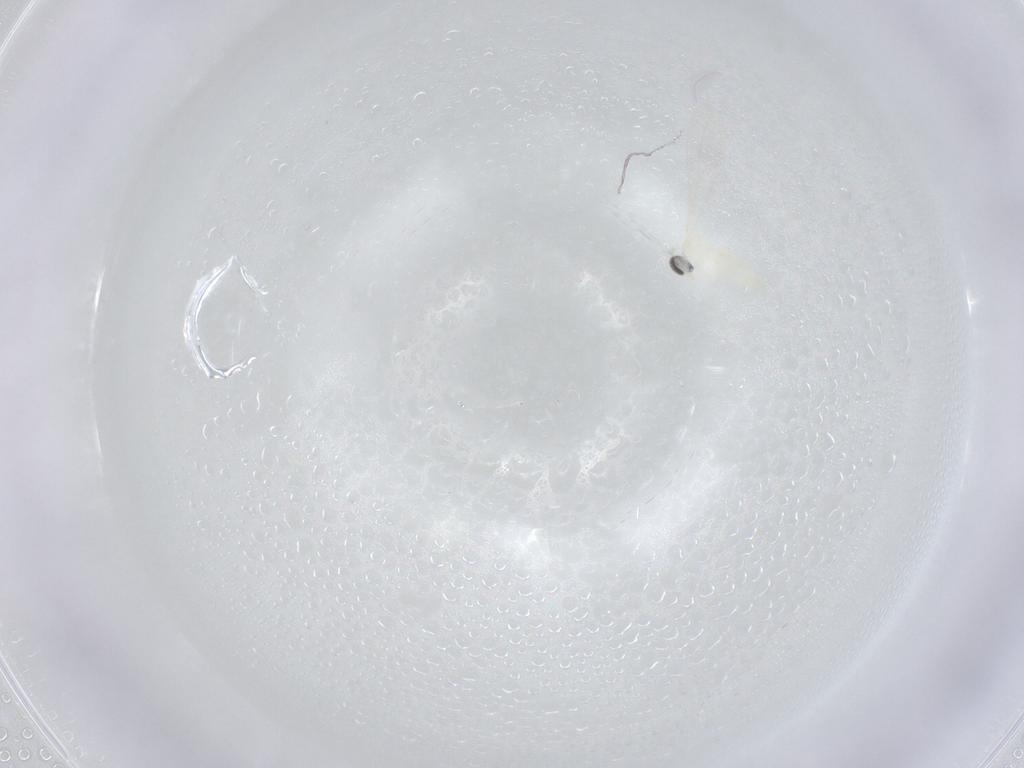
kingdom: Animalia
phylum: Arthropoda
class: Insecta
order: Diptera
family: Cecidomyiidae
